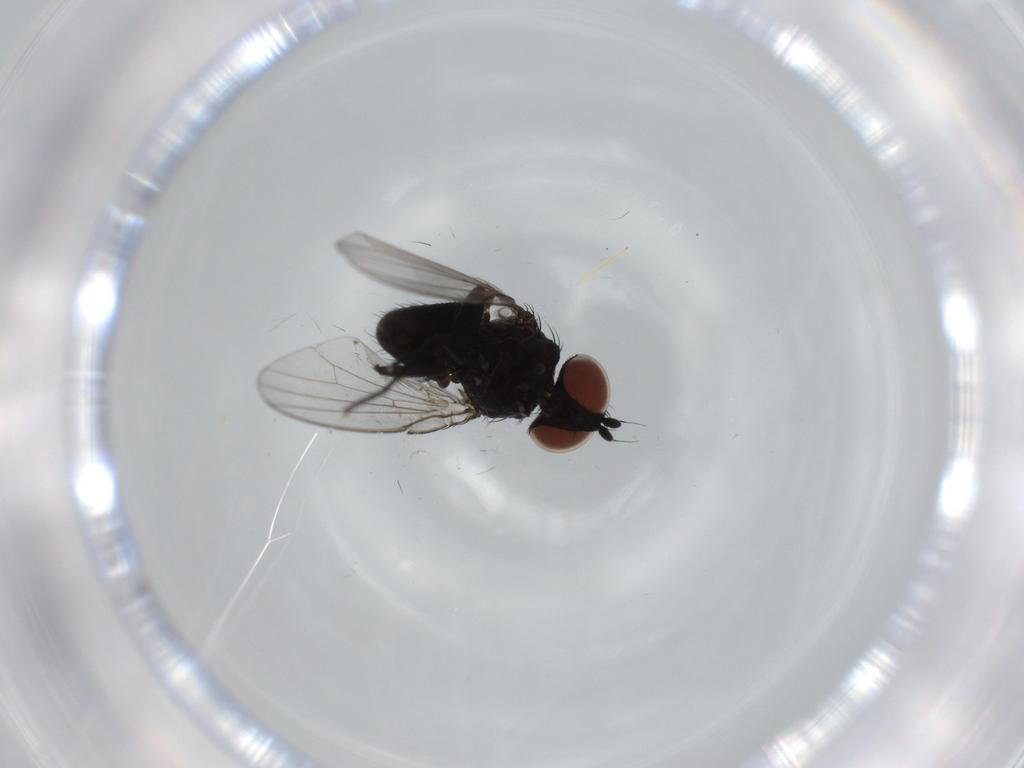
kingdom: Animalia
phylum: Arthropoda
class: Insecta
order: Diptera
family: Milichiidae
